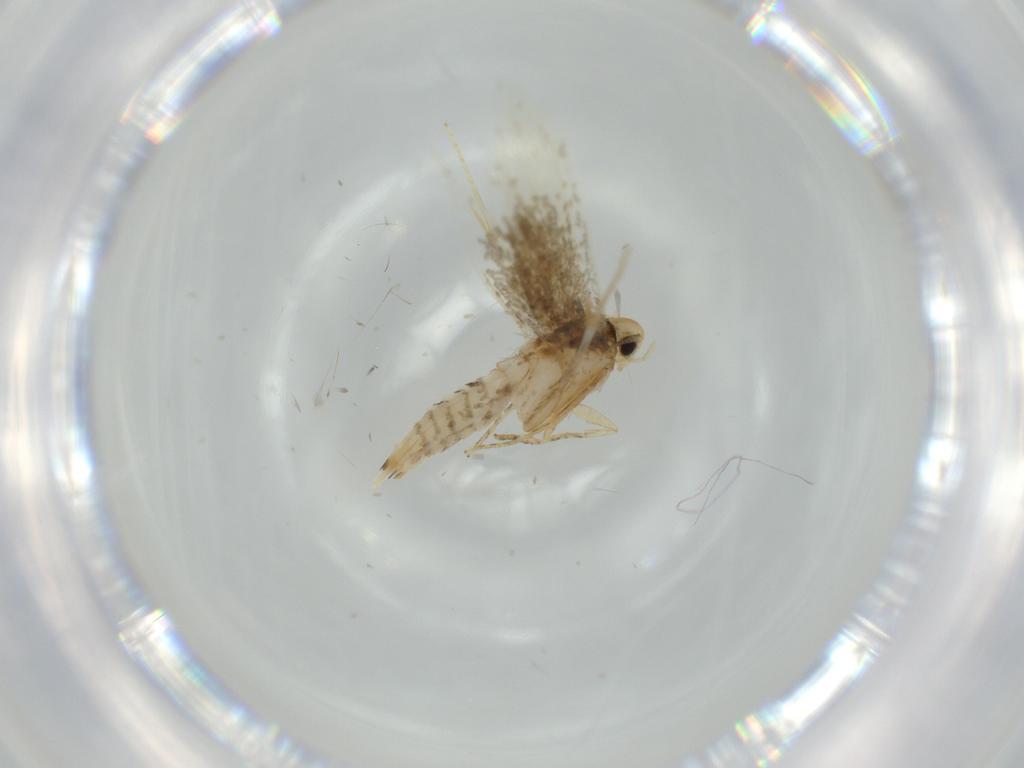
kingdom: Animalia
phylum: Arthropoda
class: Insecta
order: Lepidoptera
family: Tineidae
